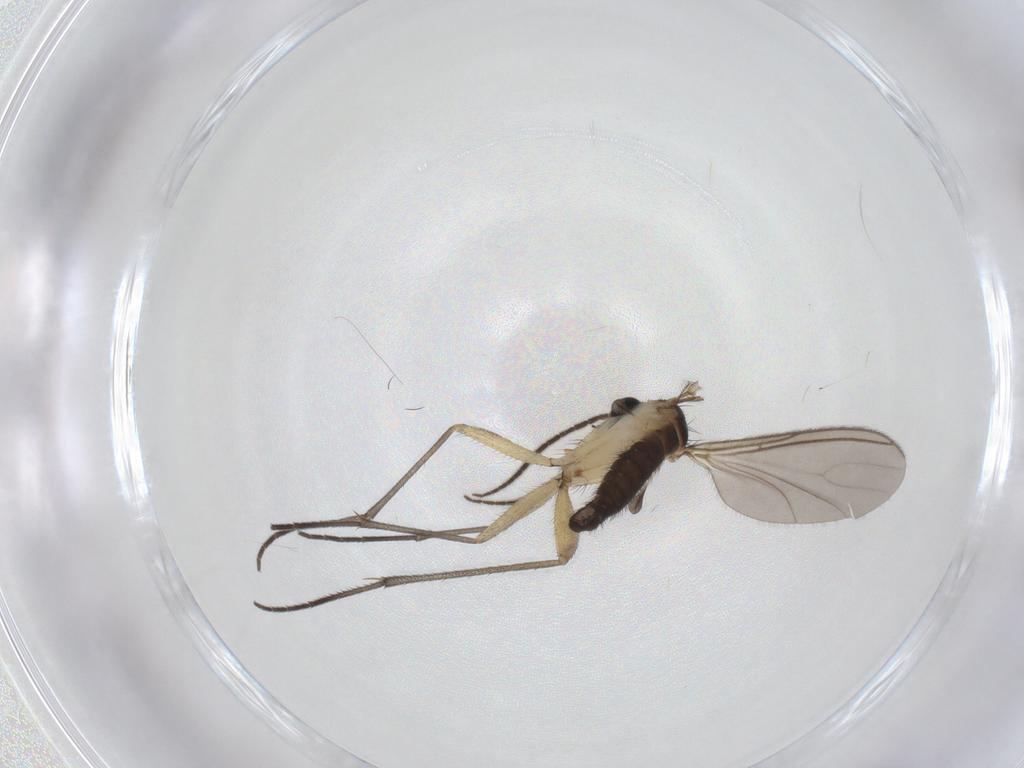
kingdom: Animalia
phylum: Arthropoda
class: Insecta
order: Diptera
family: Sciaridae
